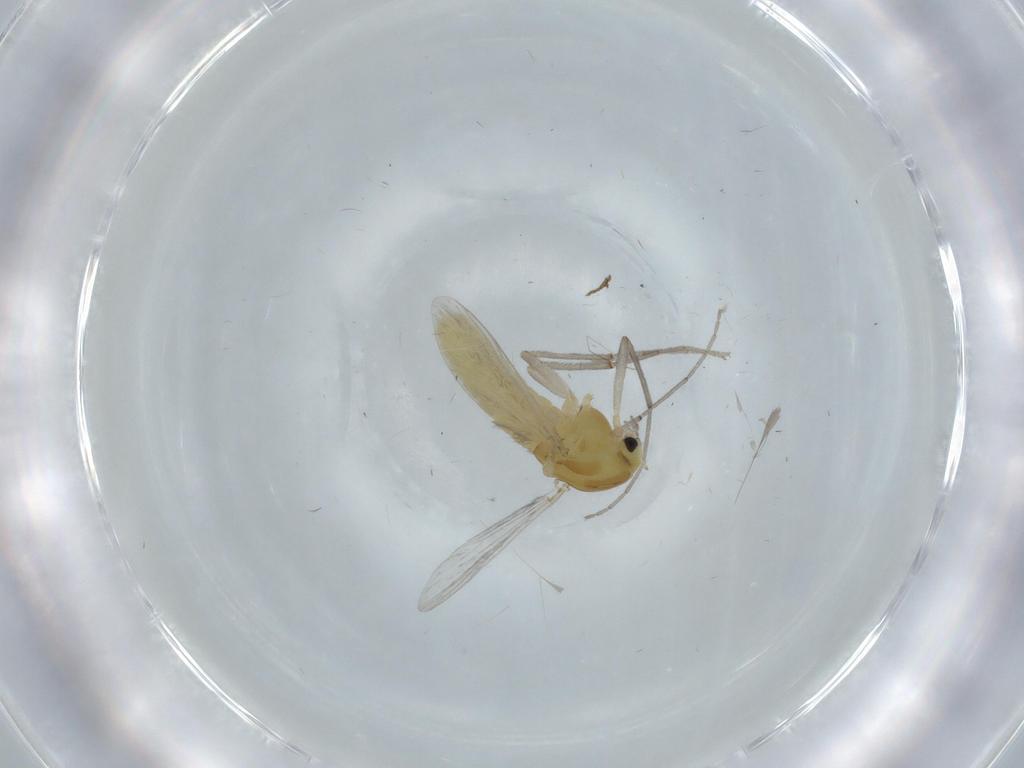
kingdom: Animalia
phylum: Arthropoda
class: Insecta
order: Diptera
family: Chironomidae
